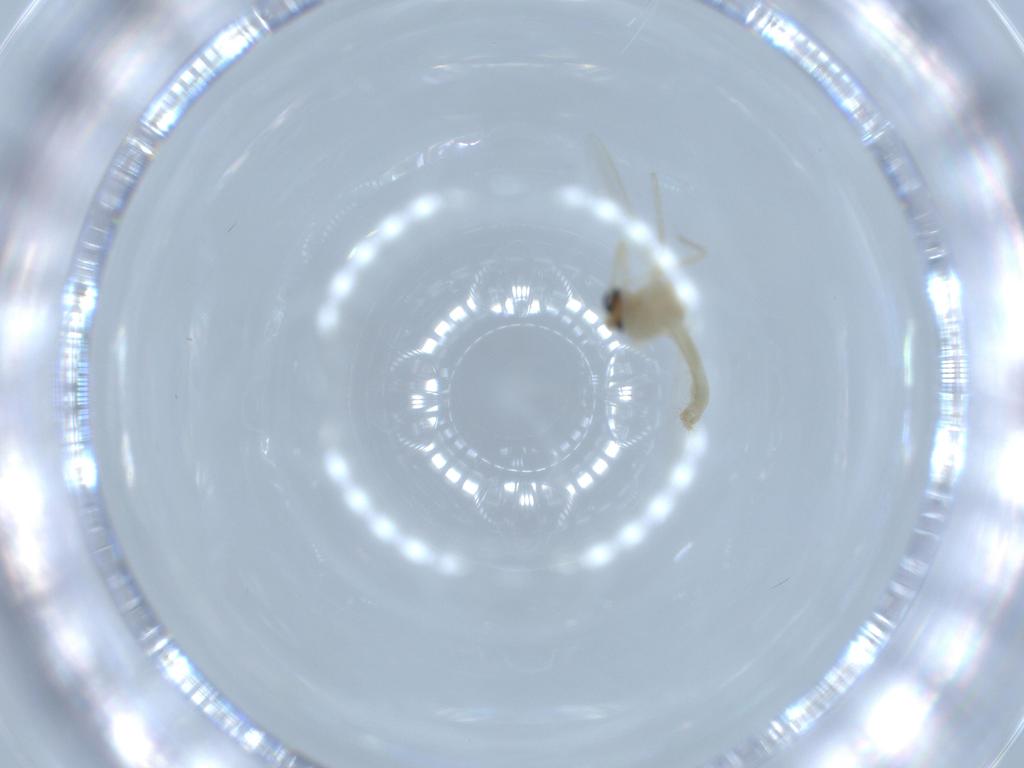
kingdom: Animalia
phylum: Arthropoda
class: Insecta
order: Diptera
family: Chironomidae
